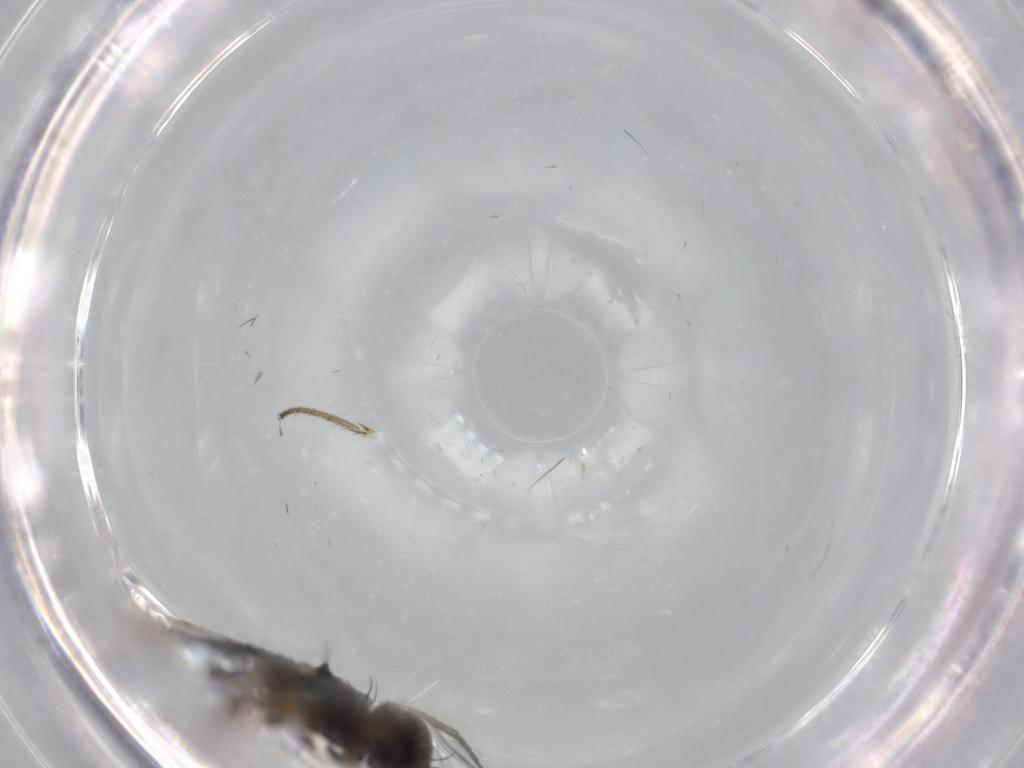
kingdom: Animalia
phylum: Arthropoda
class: Insecta
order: Diptera
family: Dolichopodidae
